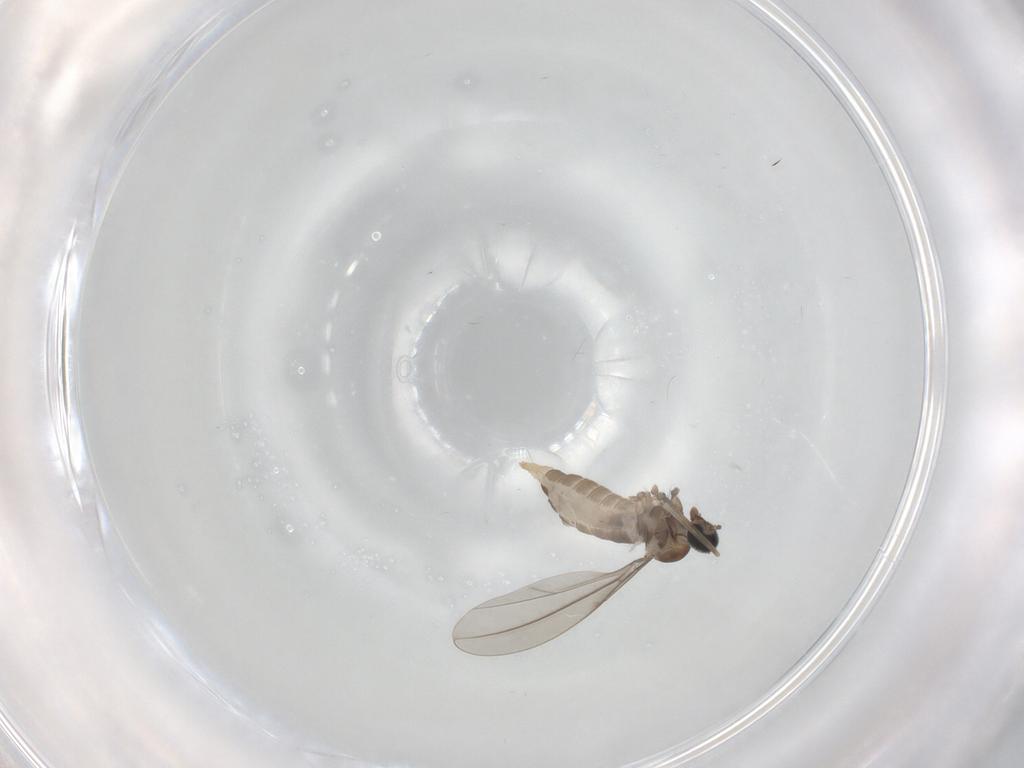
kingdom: Animalia
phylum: Arthropoda
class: Insecta
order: Diptera
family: Cecidomyiidae
